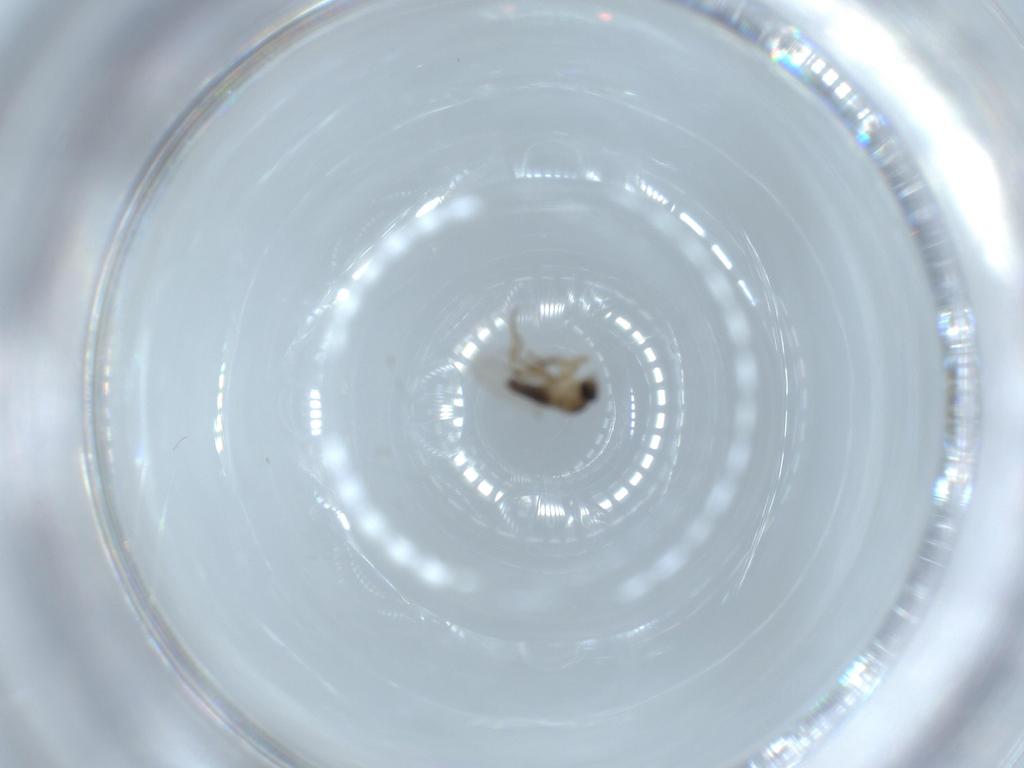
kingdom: Animalia
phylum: Arthropoda
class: Insecta
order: Diptera
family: Phoridae
